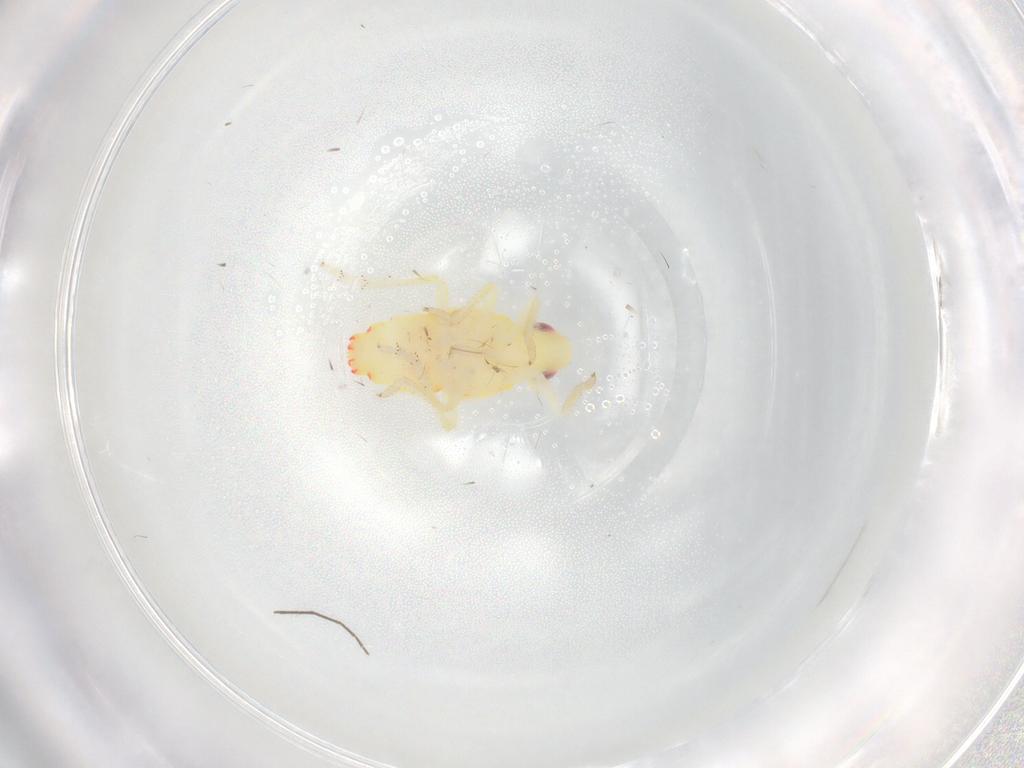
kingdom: Animalia
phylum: Arthropoda
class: Insecta
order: Hemiptera
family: Tropiduchidae
